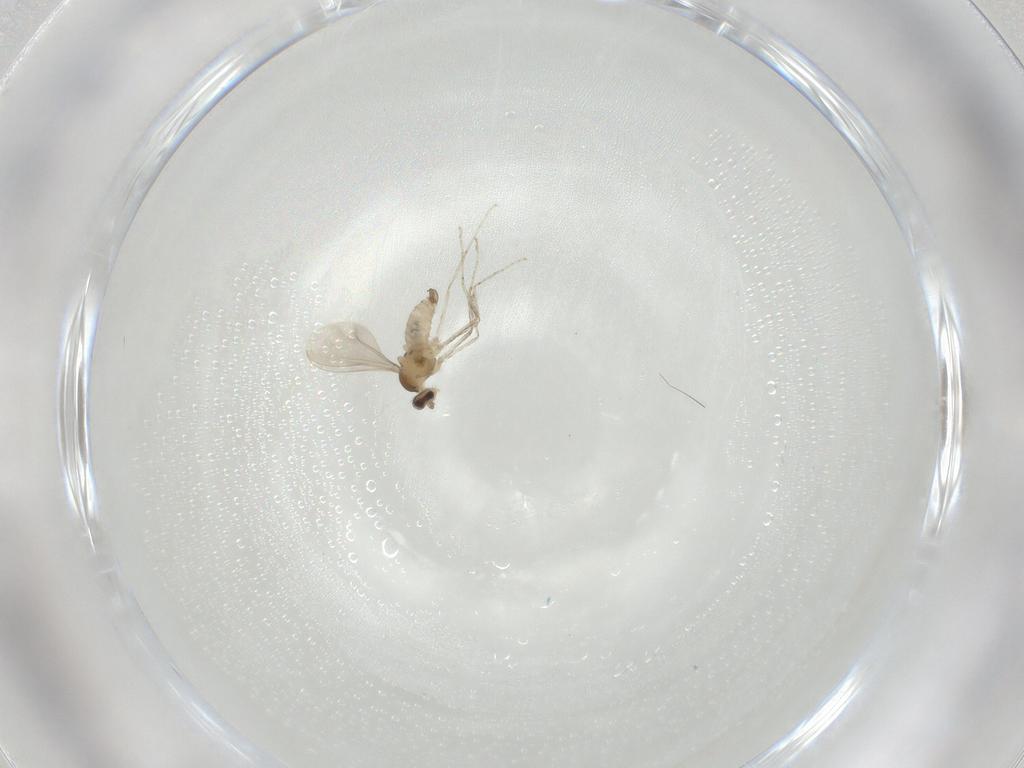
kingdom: Animalia
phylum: Arthropoda
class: Insecta
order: Diptera
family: Cecidomyiidae
